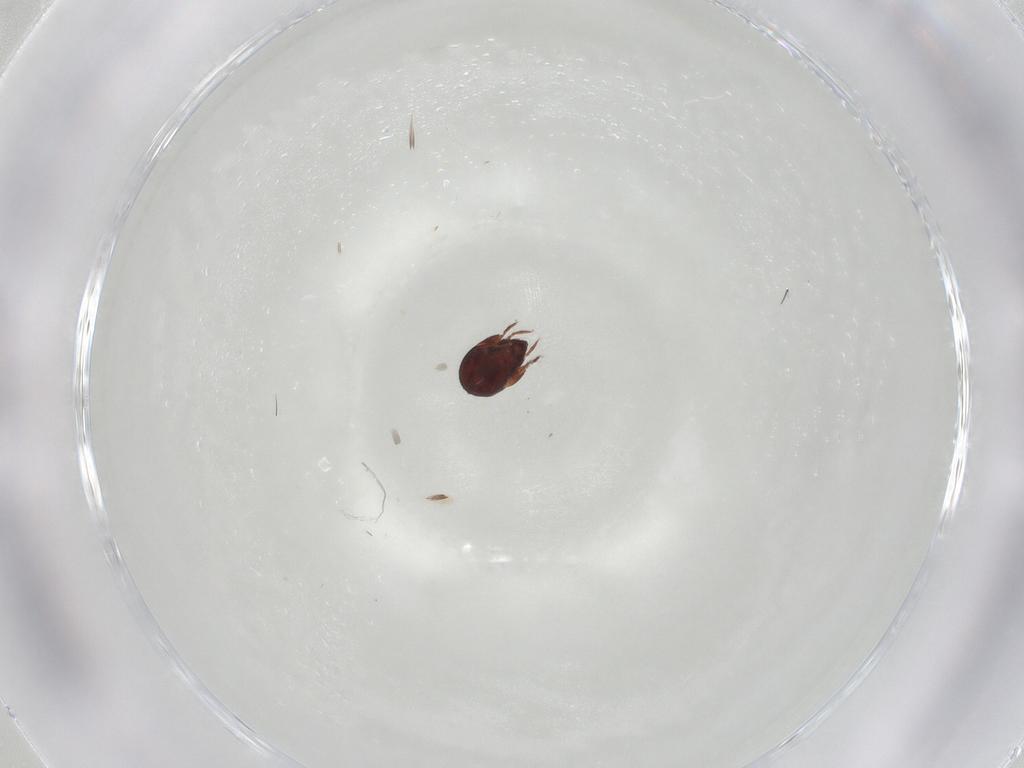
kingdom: Animalia
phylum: Arthropoda
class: Arachnida
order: Sarcoptiformes
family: Humerobatidae
